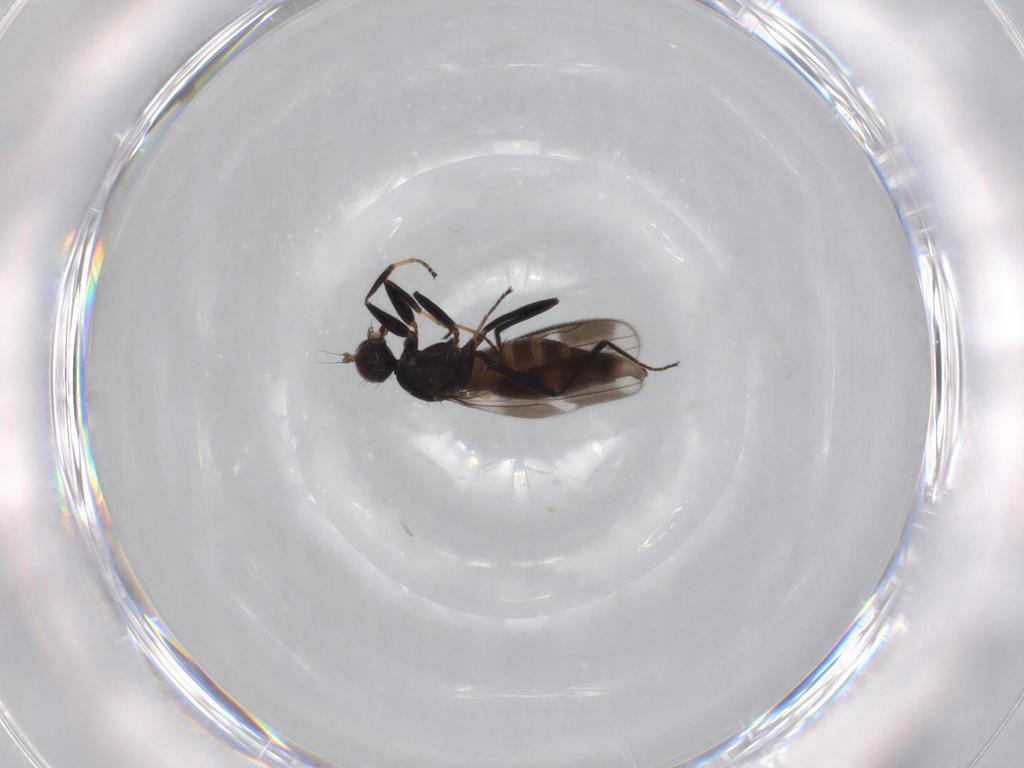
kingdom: Animalia
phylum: Arthropoda
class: Insecta
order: Diptera
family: Hybotidae
